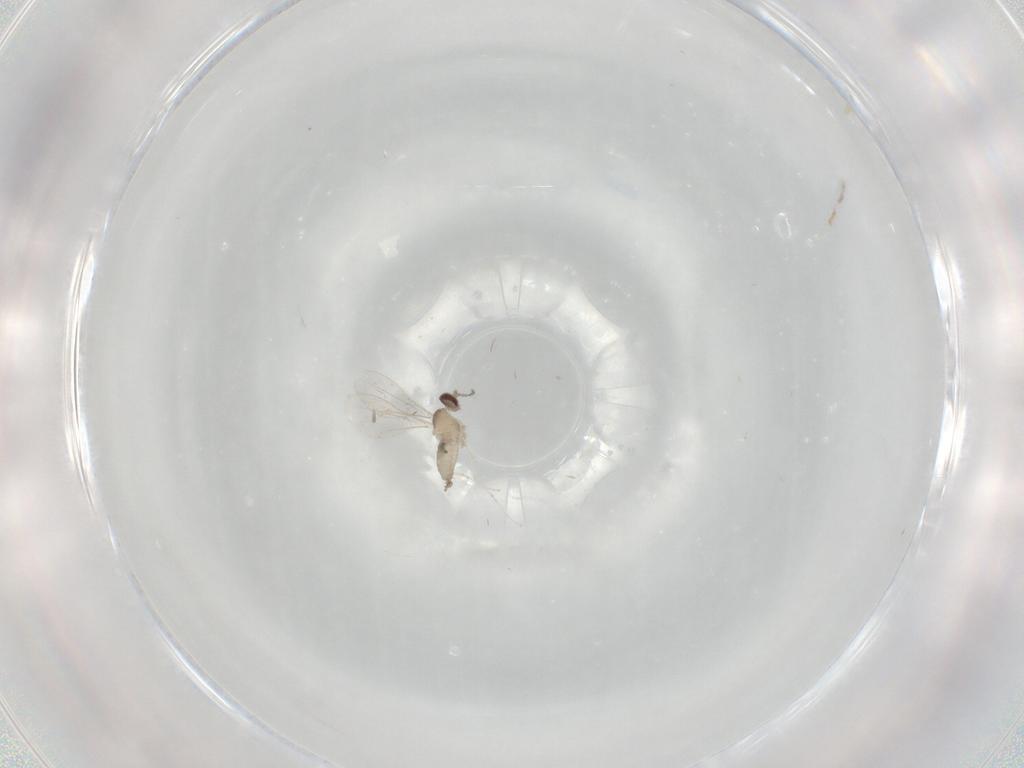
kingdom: Animalia
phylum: Arthropoda
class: Insecta
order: Diptera
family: Cecidomyiidae
